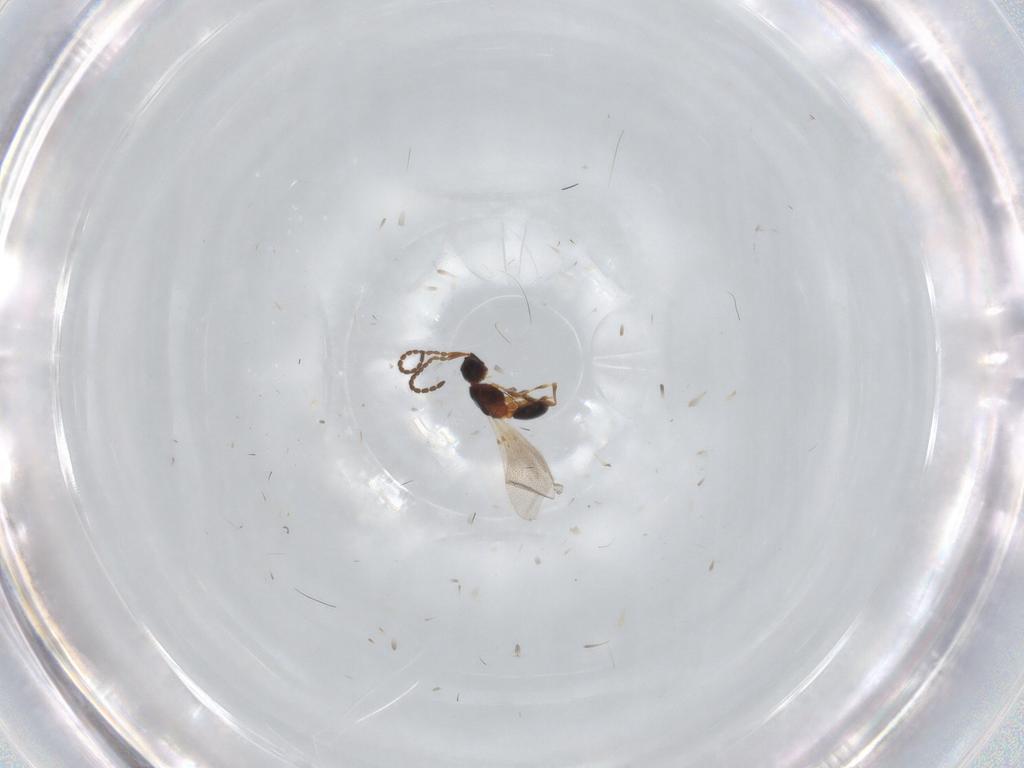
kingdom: Animalia
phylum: Arthropoda
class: Insecta
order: Hymenoptera
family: Diapriidae
